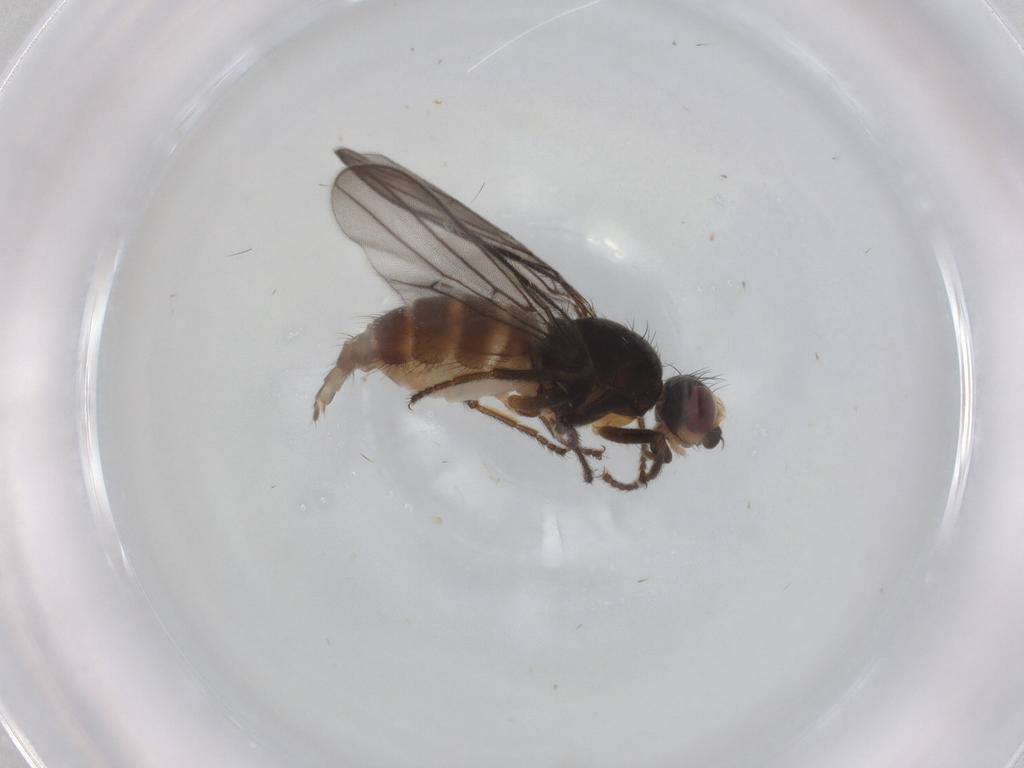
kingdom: Animalia
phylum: Arthropoda
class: Insecta
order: Diptera
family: Chloropidae
